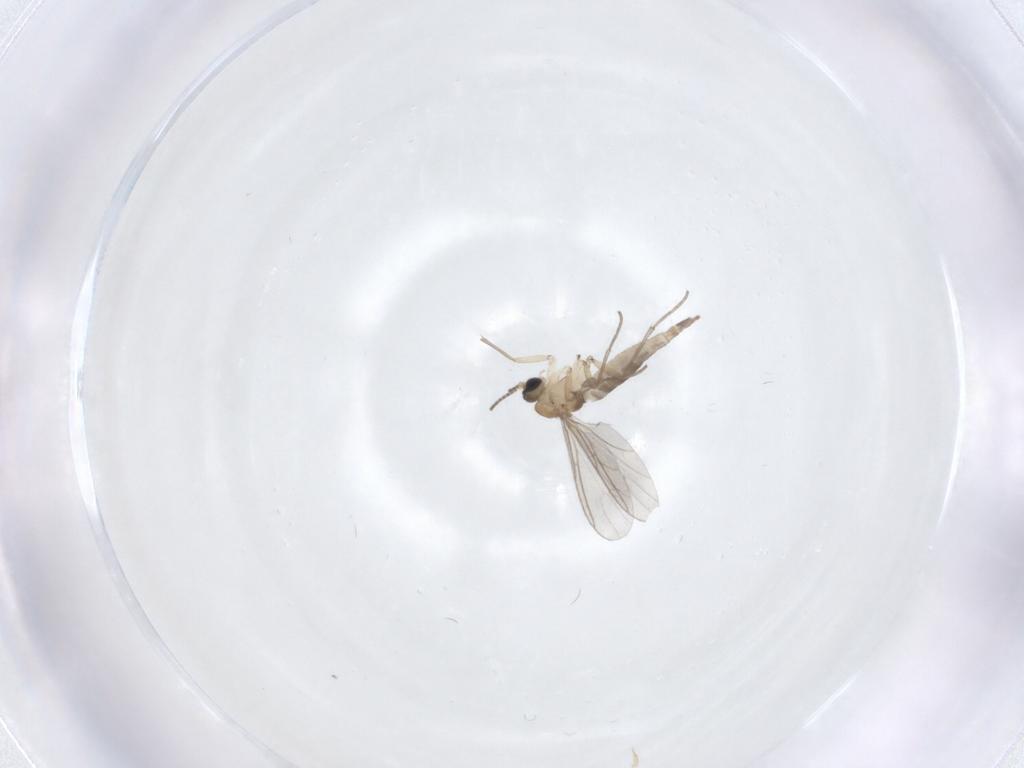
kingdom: Animalia
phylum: Arthropoda
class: Insecta
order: Diptera
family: Sciaridae
